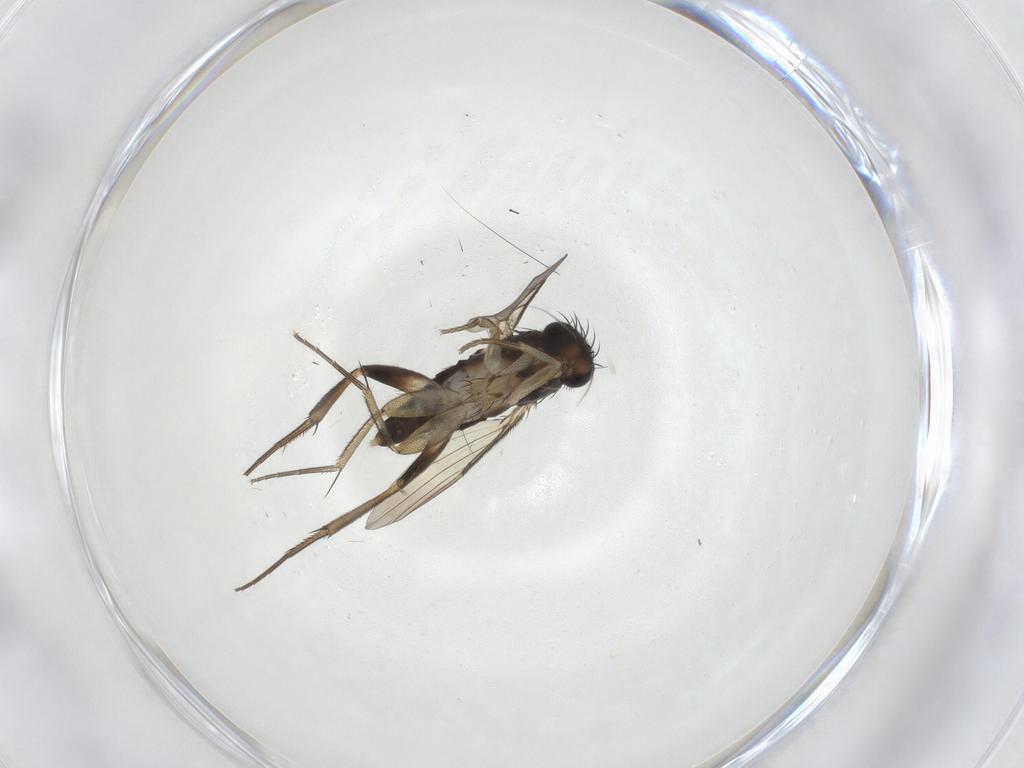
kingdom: Animalia
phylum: Arthropoda
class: Insecta
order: Diptera
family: Phoridae
